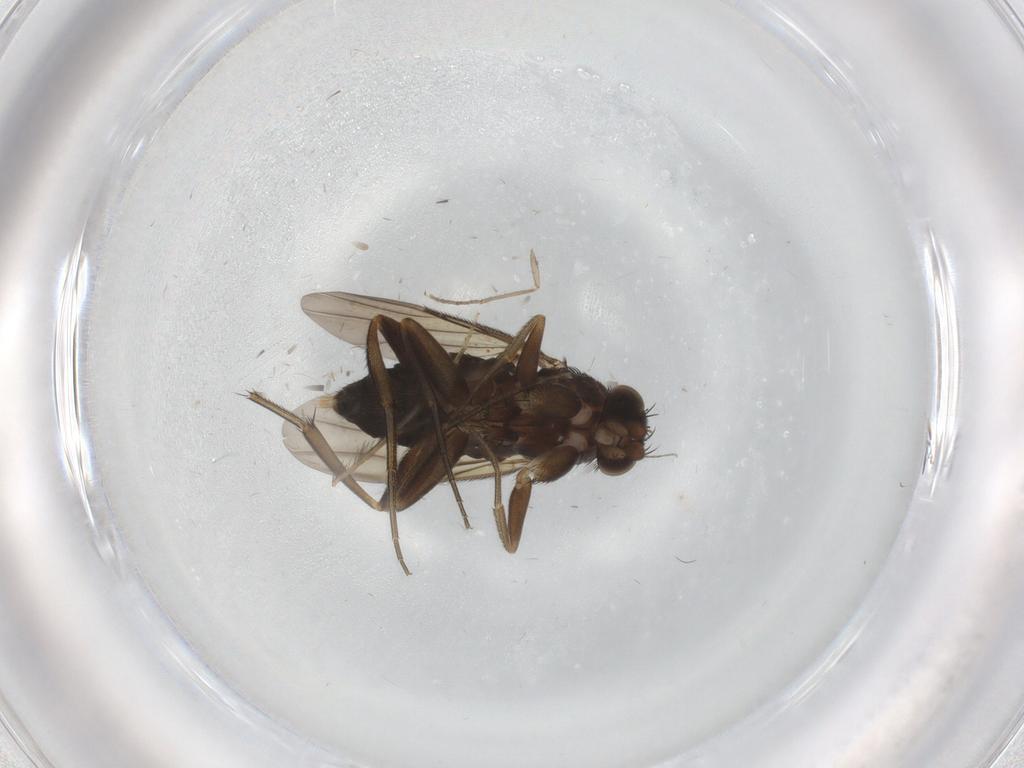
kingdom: Animalia
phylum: Arthropoda
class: Insecta
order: Diptera
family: Phoridae
